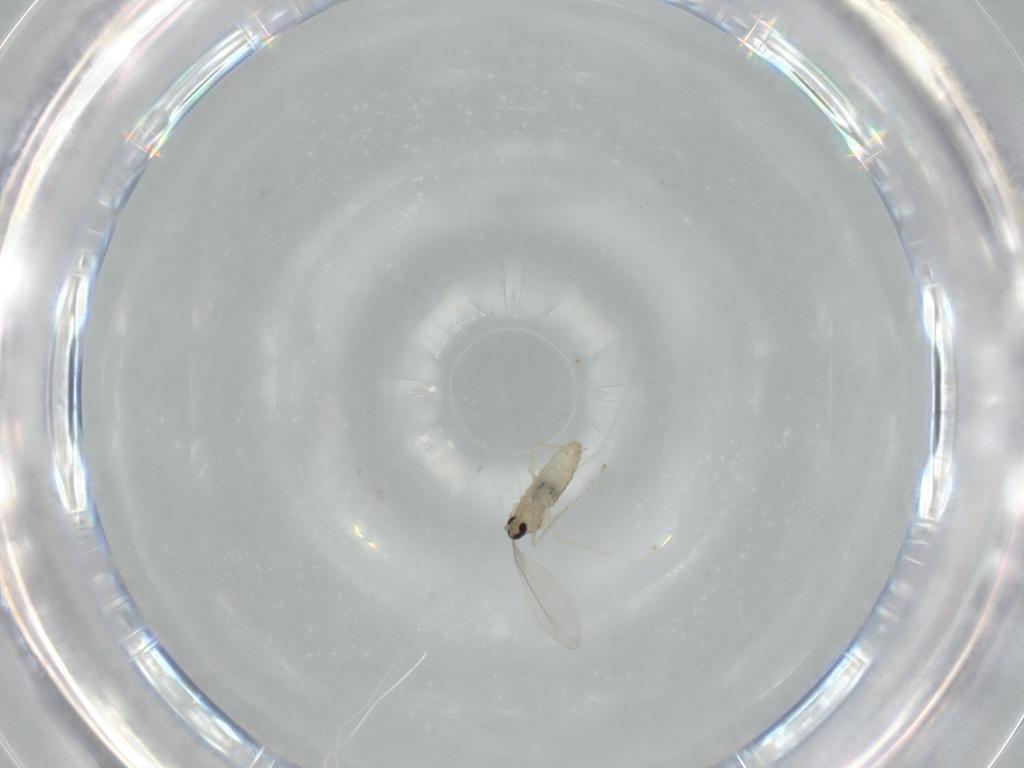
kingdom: Animalia
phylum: Arthropoda
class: Insecta
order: Diptera
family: Cecidomyiidae
